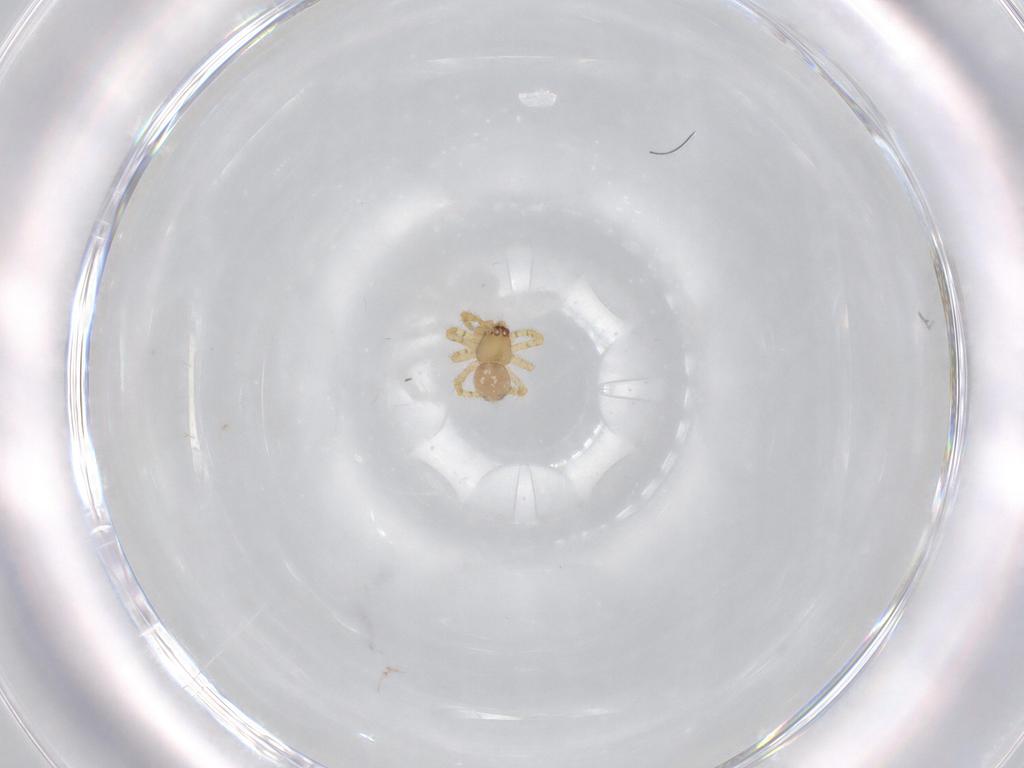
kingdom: Animalia
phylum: Arthropoda
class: Arachnida
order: Araneae
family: Theridiidae
